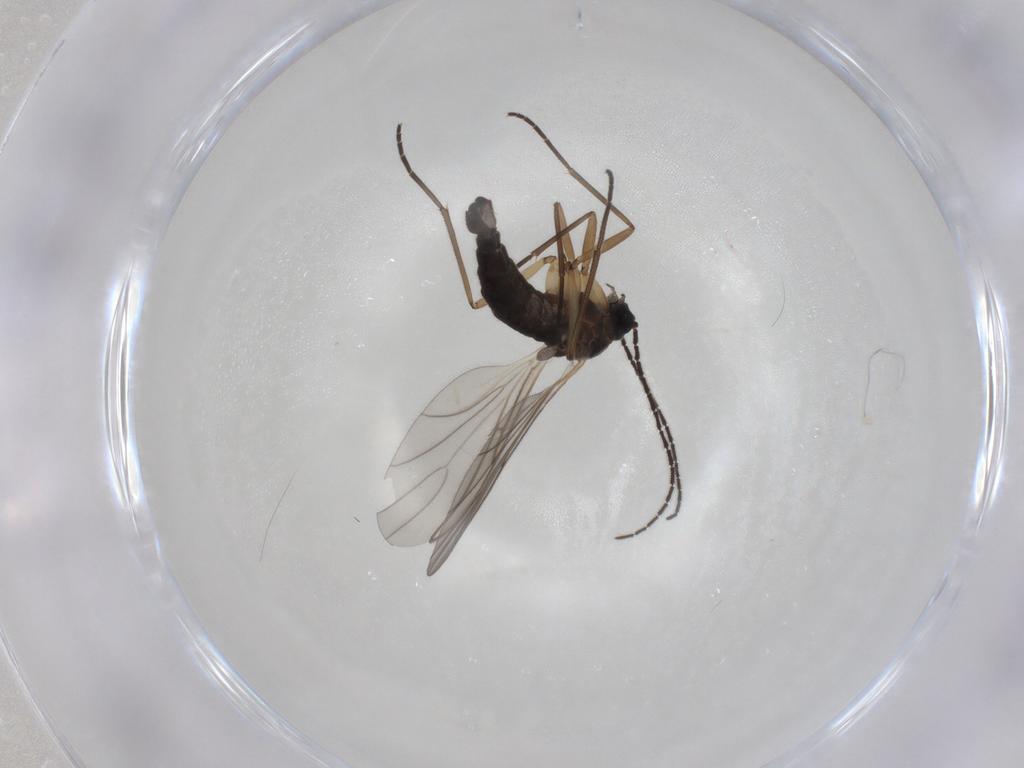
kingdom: Animalia
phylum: Arthropoda
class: Insecta
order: Diptera
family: Sciaridae
